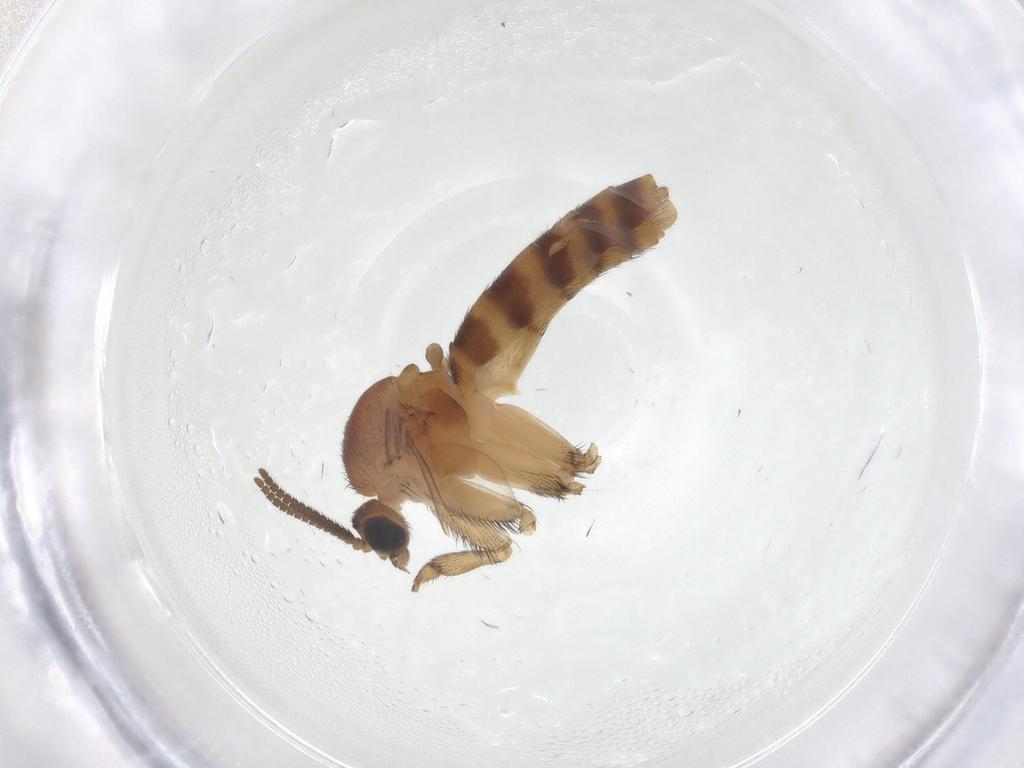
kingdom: Animalia
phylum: Arthropoda
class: Insecta
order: Diptera
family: Keroplatidae
